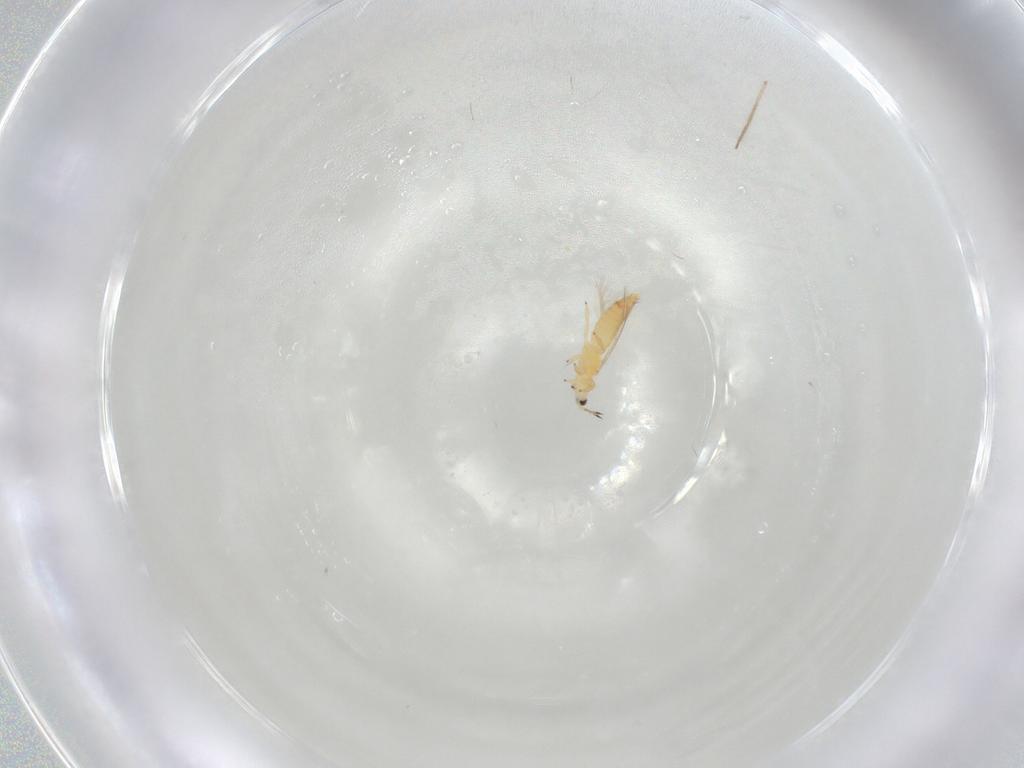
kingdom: Animalia
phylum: Arthropoda
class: Insecta
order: Thysanoptera
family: Thripidae
